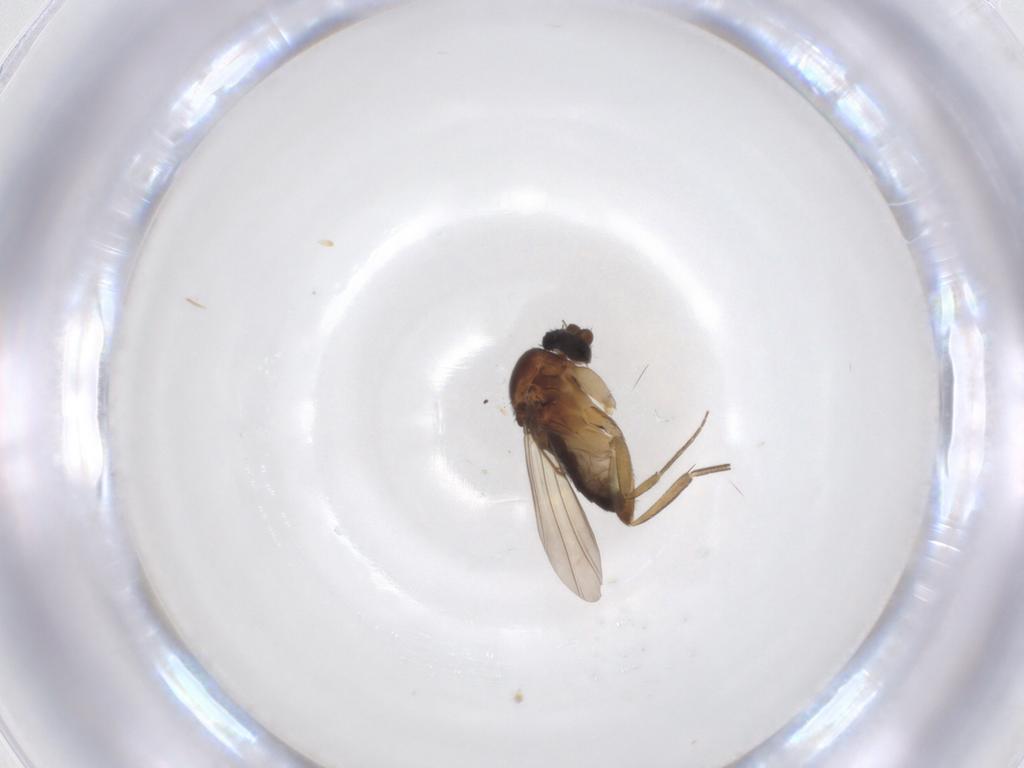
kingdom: Animalia
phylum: Arthropoda
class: Insecta
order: Diptera
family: Phoridae
